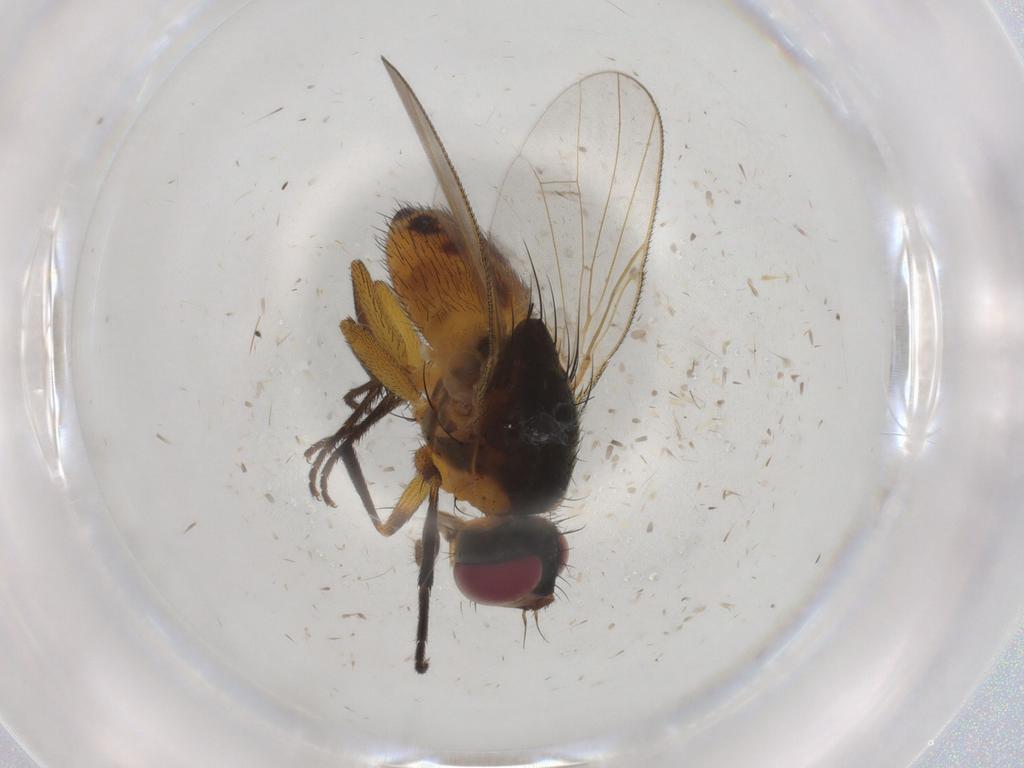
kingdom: Animalia
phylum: Arthropoda
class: Insecta
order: Diptera
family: Muscidae
